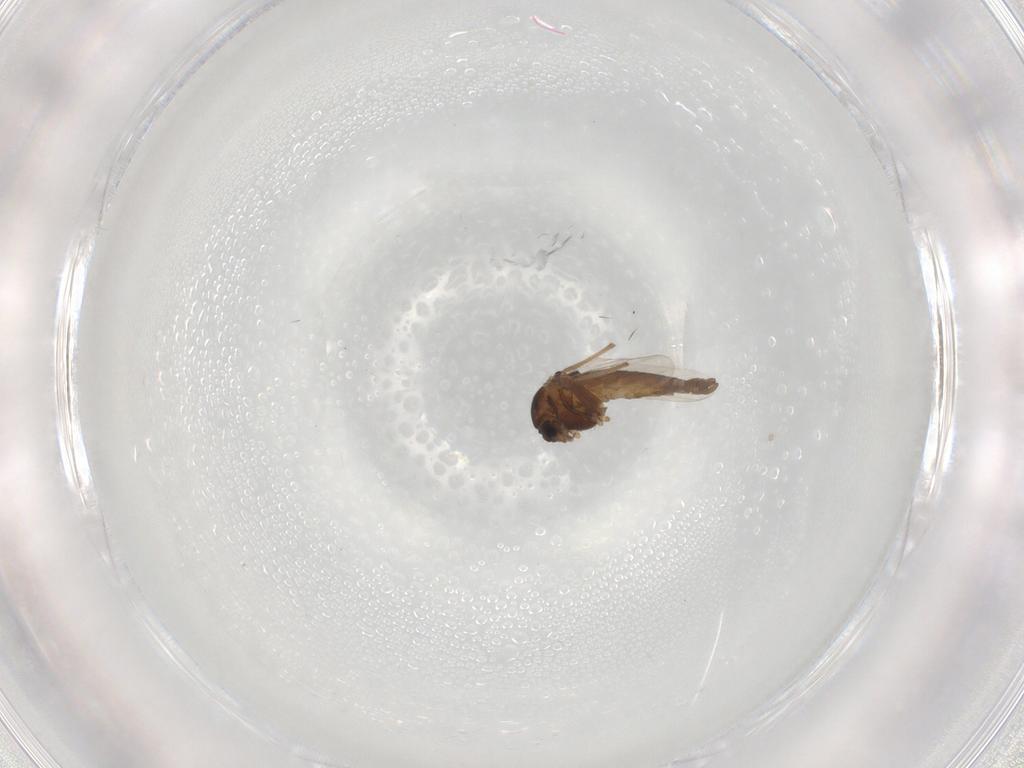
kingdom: Animalia
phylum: Arthropoda
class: Insecta
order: Diptera
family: Chironomidae
